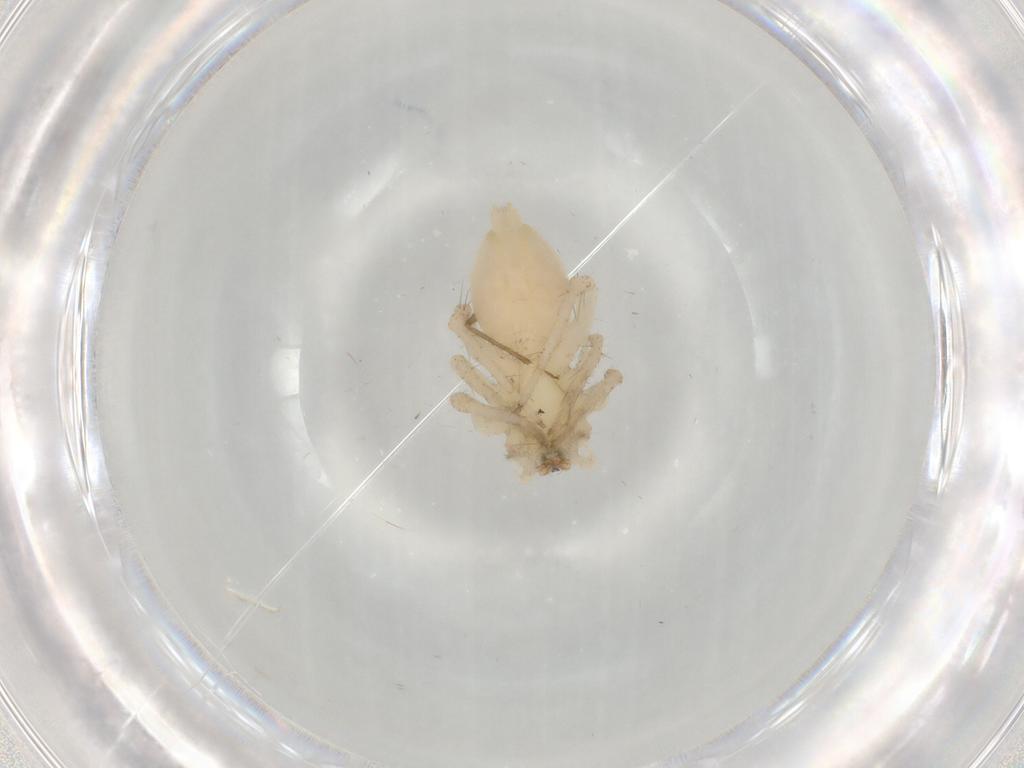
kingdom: Animalia
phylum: Arthropoda
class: Arachnida
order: Araneae
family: Anyphaenidae
